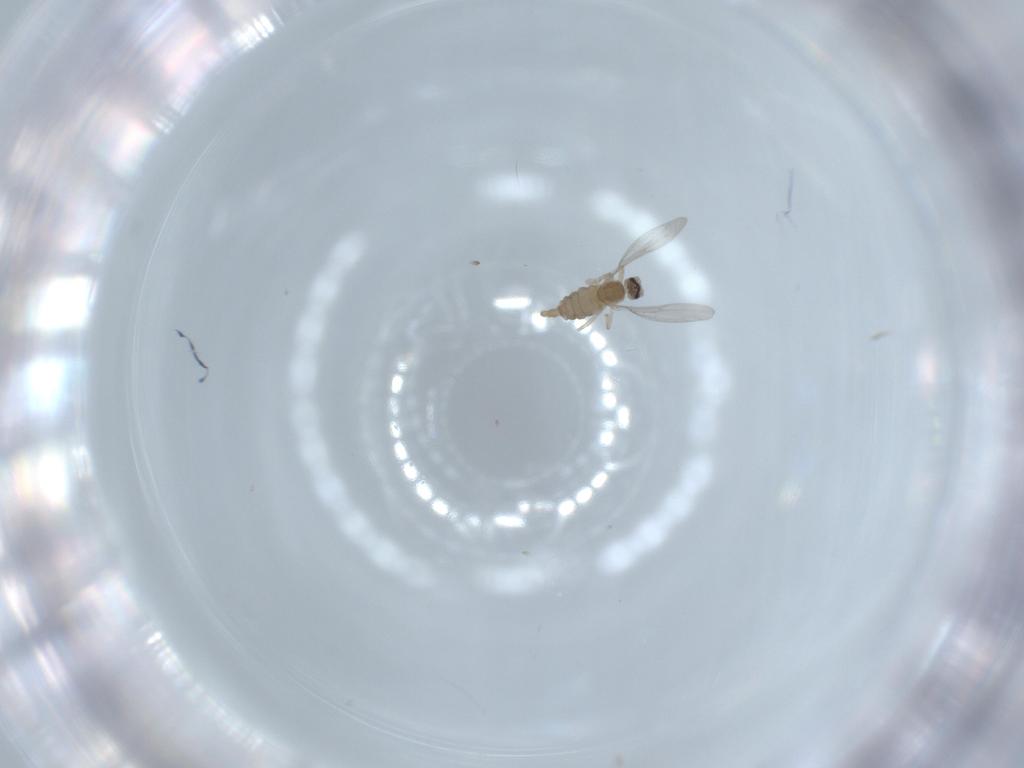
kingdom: Animalia
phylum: Arthropoda
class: Insecta
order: Diptera
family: Cecidomyiidae
